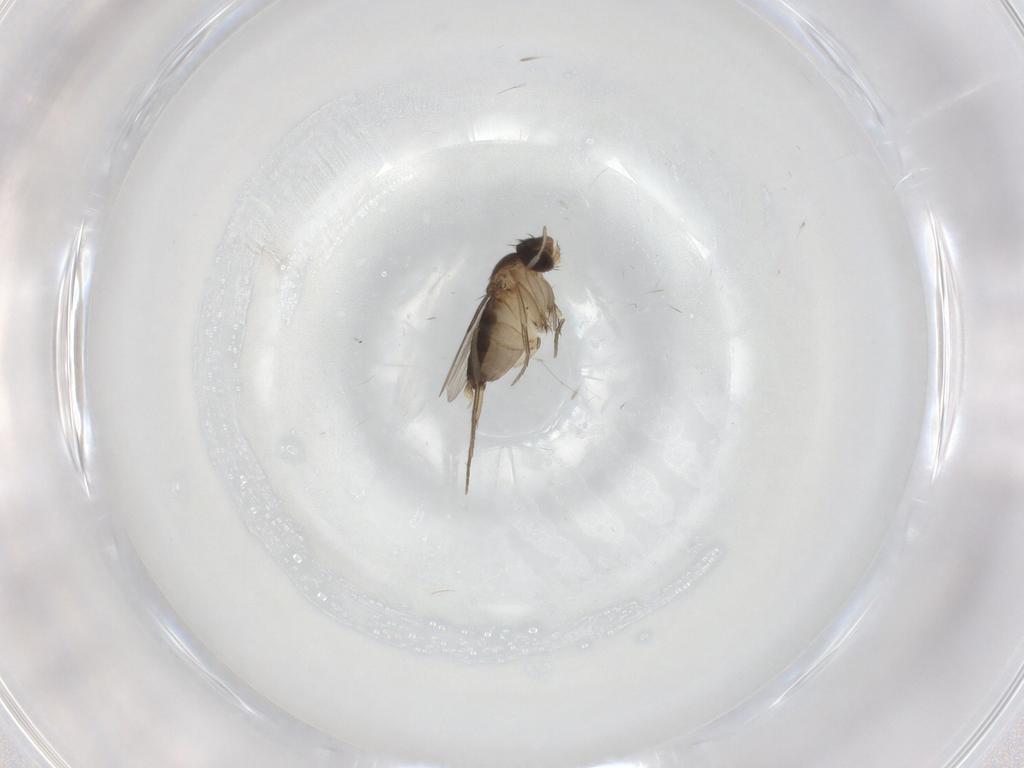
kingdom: Animalia
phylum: Arthropoda
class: Insecta
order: Diptera
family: Phoridae
